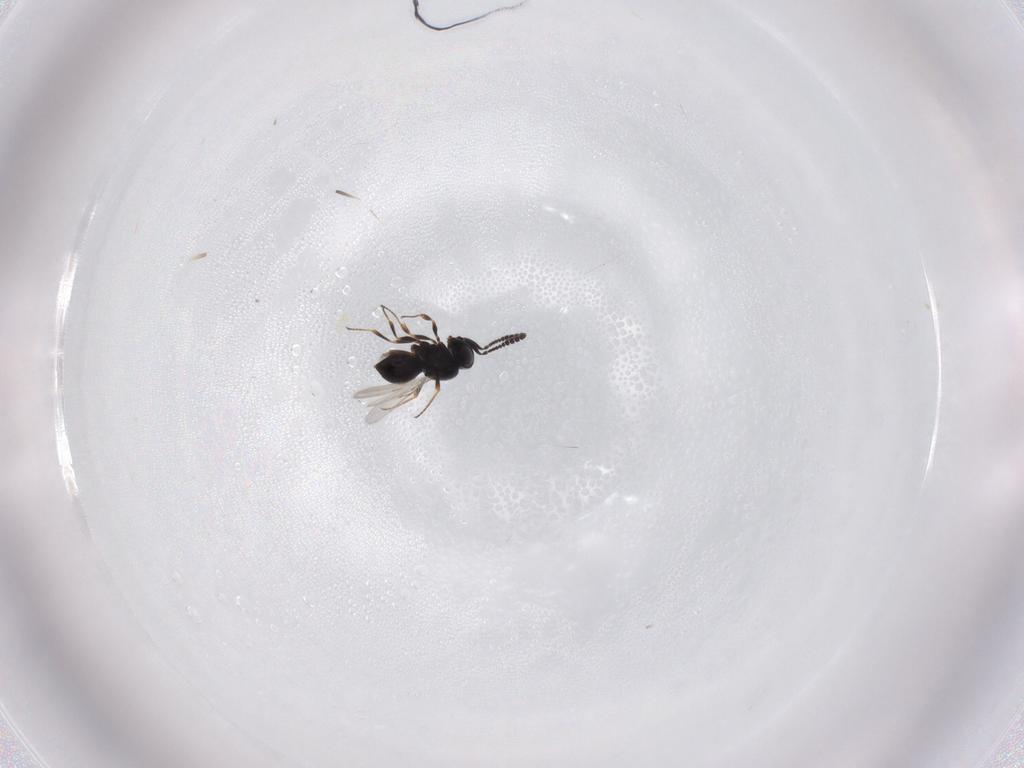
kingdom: Animalia
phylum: Arthropoda
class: Insecta
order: Hymenoptera
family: Scelionidae
